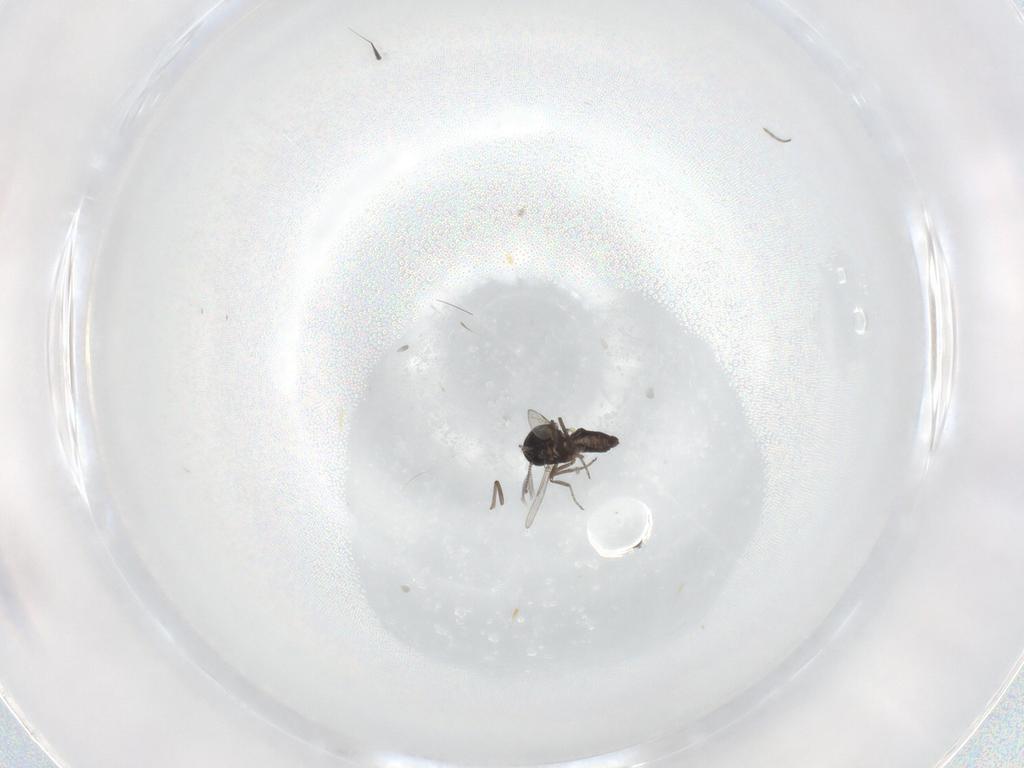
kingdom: Animalia
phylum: Arthropoda
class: Insecta
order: Diptera
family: Ceratopogonidae
